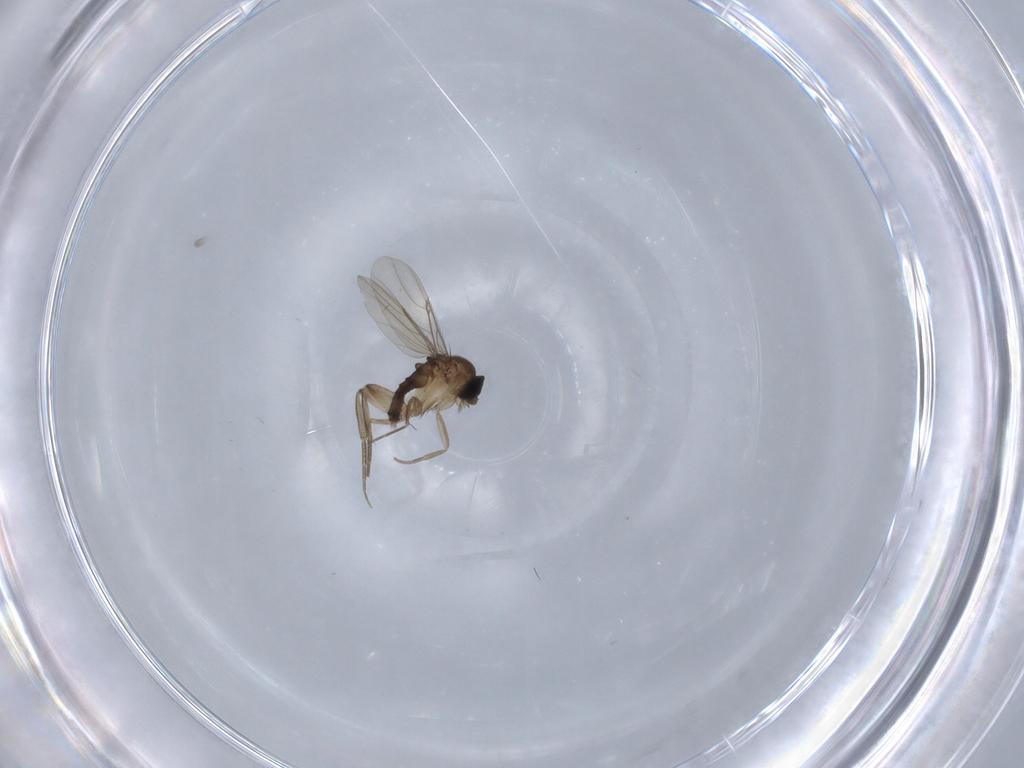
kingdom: Animalia
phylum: Arthropoda
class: Insecta
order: Diptera
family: Phoridae
